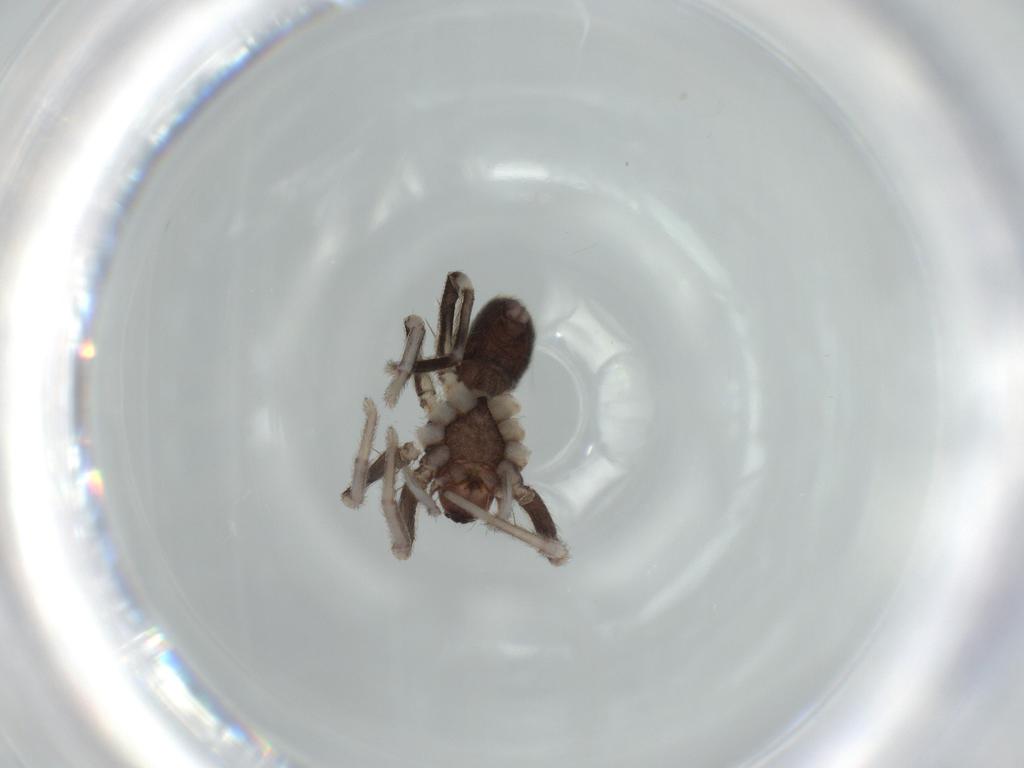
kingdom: Animalia
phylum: Arthropoda
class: Arachnida
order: Araneae
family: Corinnidae
